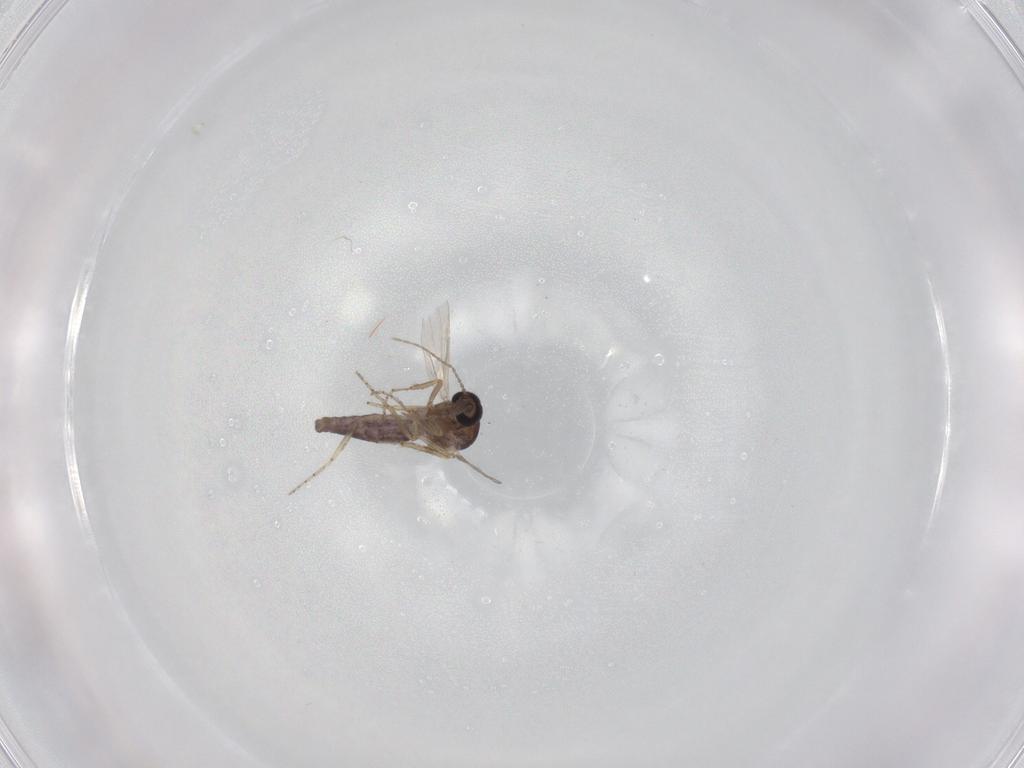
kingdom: Animalia
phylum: Arthropoda
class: Insecta
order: Diptera
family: Ceratopogonidae
